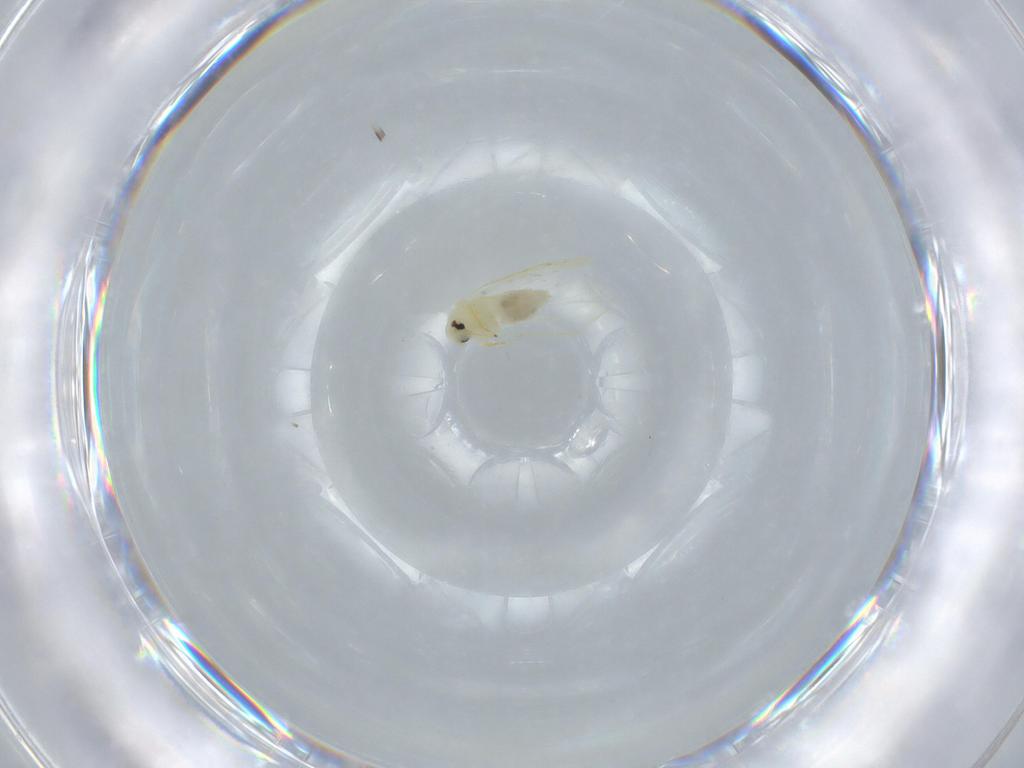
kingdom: Animalia
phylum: Arthropoda
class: Insecta
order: Hemiptera
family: Aleyrodidae
